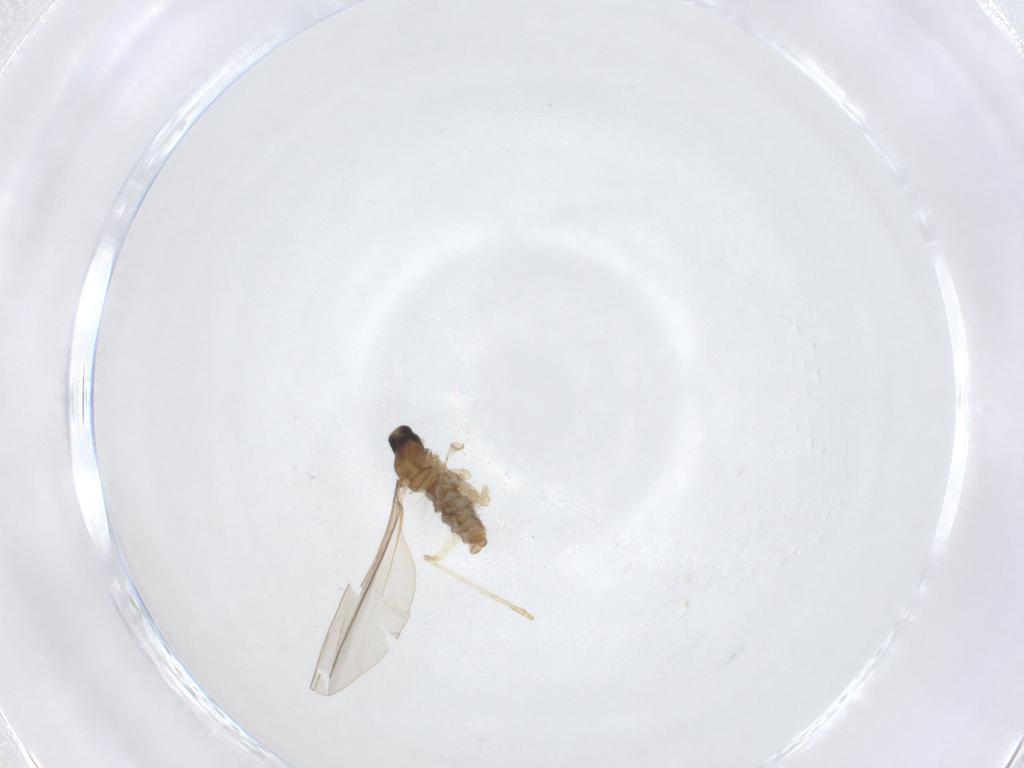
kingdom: Animalia
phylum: Arthropoda
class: Insecta
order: Diptera
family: Cecidomyiidae
